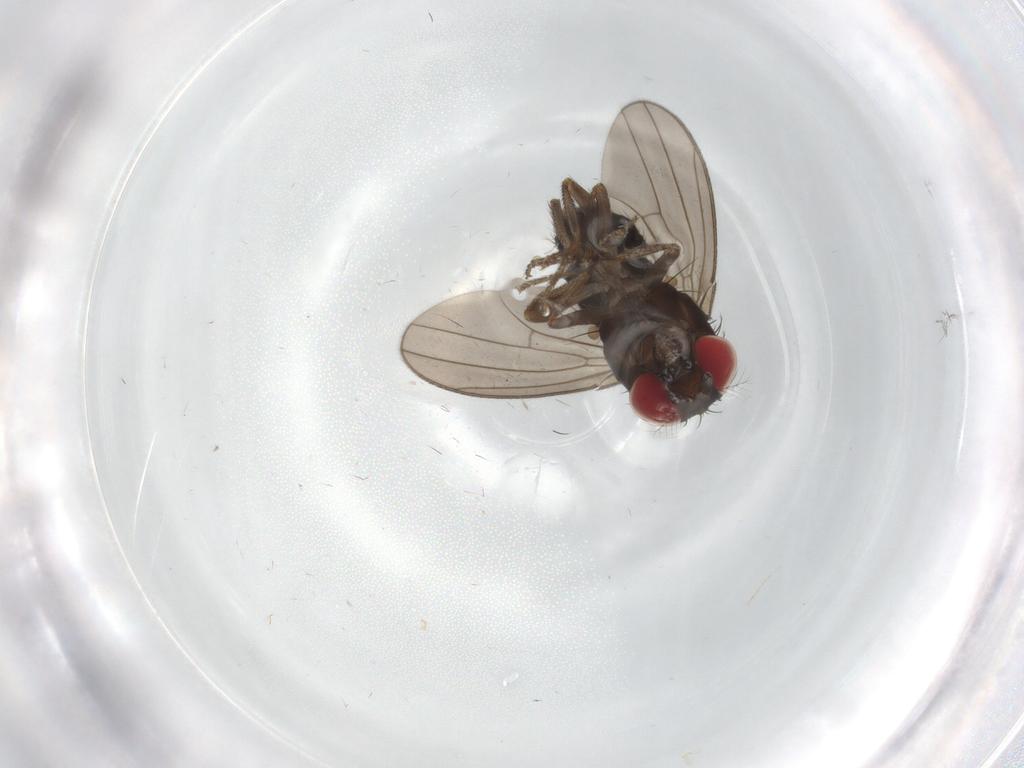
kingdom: Animalia
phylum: Arthropoda
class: Insecta
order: Diptera
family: Drosophilidae
